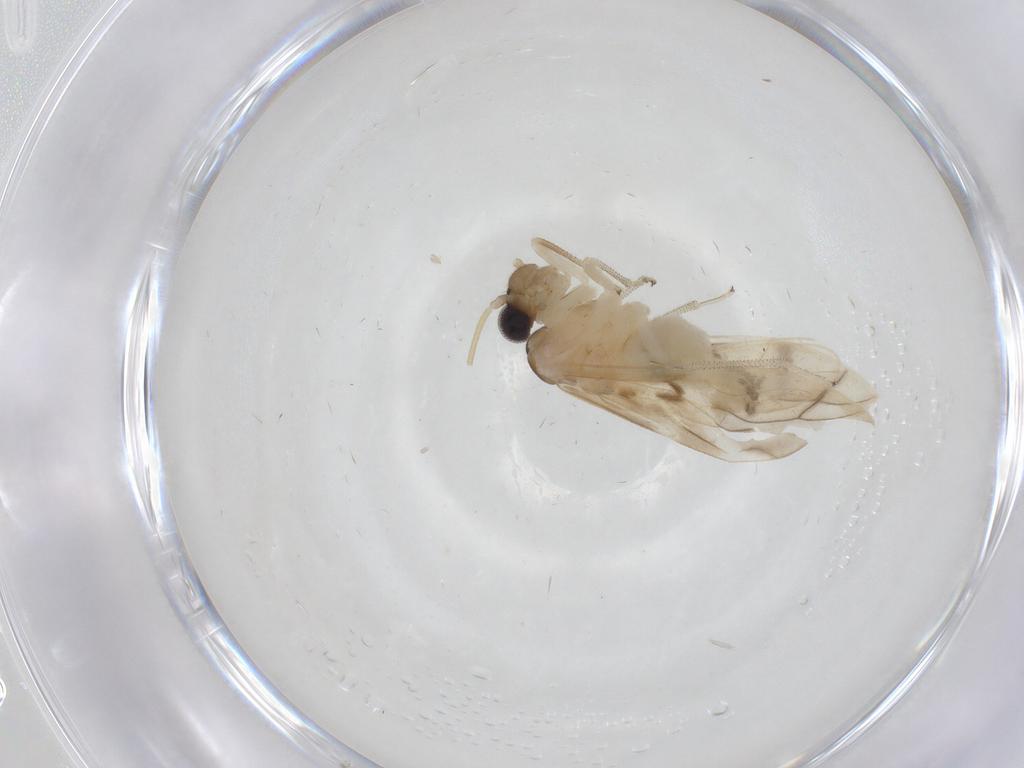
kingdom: Animalia
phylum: Arthropoda
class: Insecta
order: Psocodea
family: Caeciliusidae
